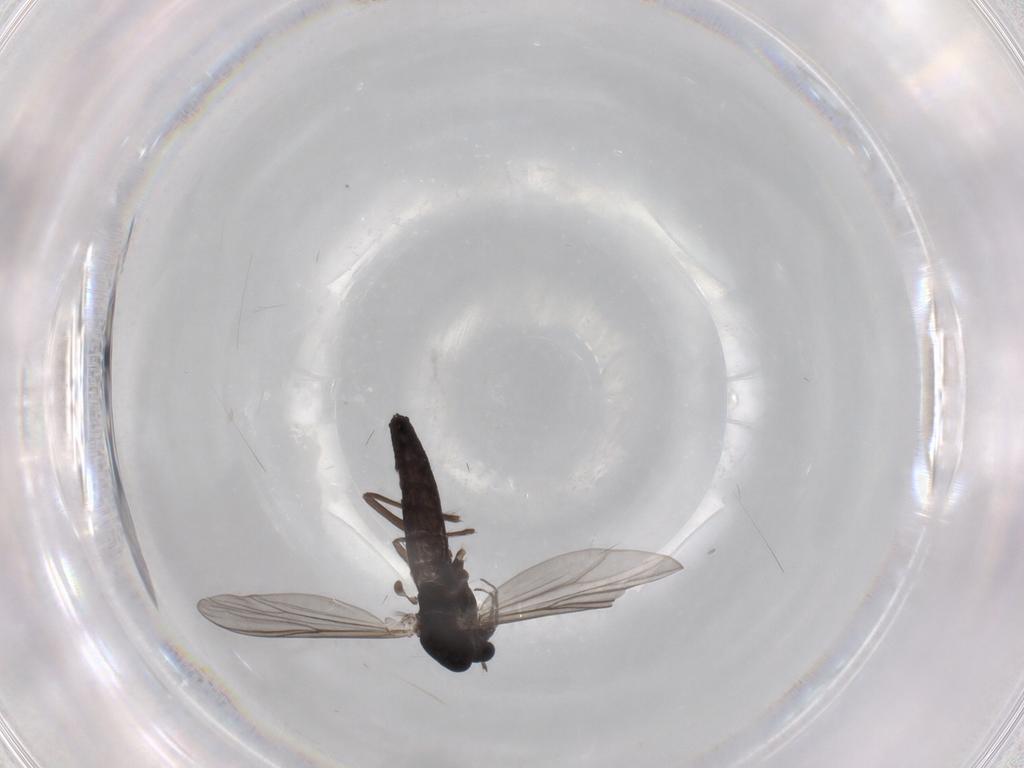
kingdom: Animalia
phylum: Arthropoda
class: Insecta
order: Diptera
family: Chironomidae
